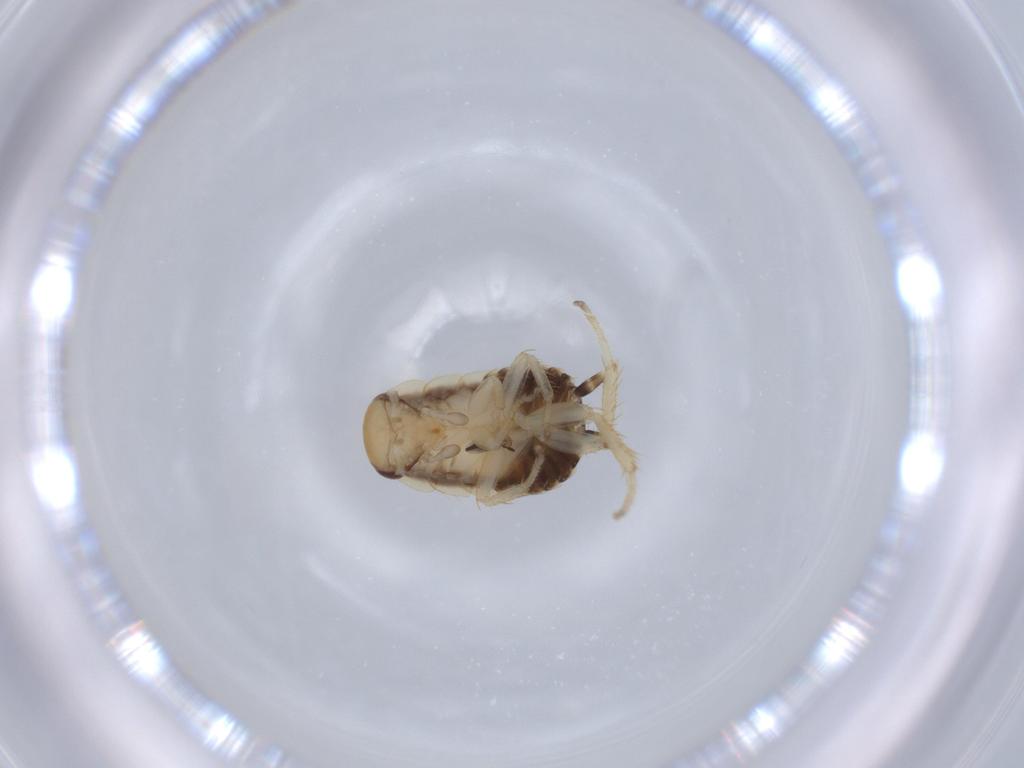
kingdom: Animalia
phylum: Arthropoda
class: Insecta
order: Blattodea
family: Ectobiidae
